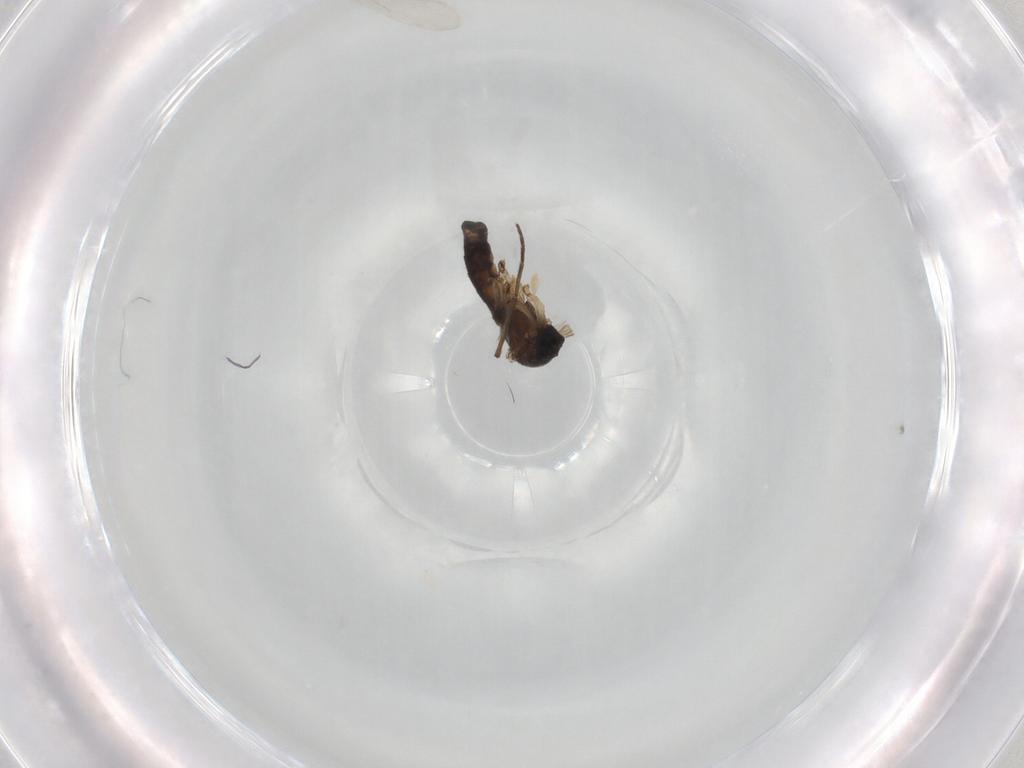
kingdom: Animalia
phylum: Arthropoda
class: Insecta
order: Diptera
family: Sciaridae
